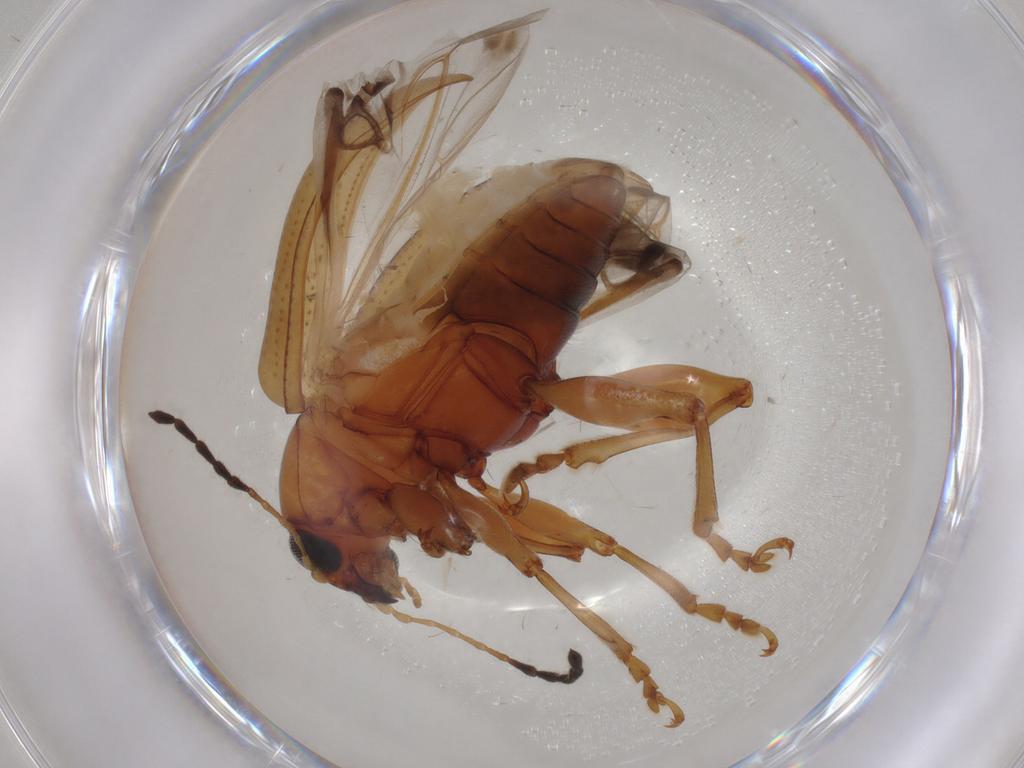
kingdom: Animalia
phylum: Arthropoda
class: Insecta
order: Coleoptera
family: Chrysomelidae
